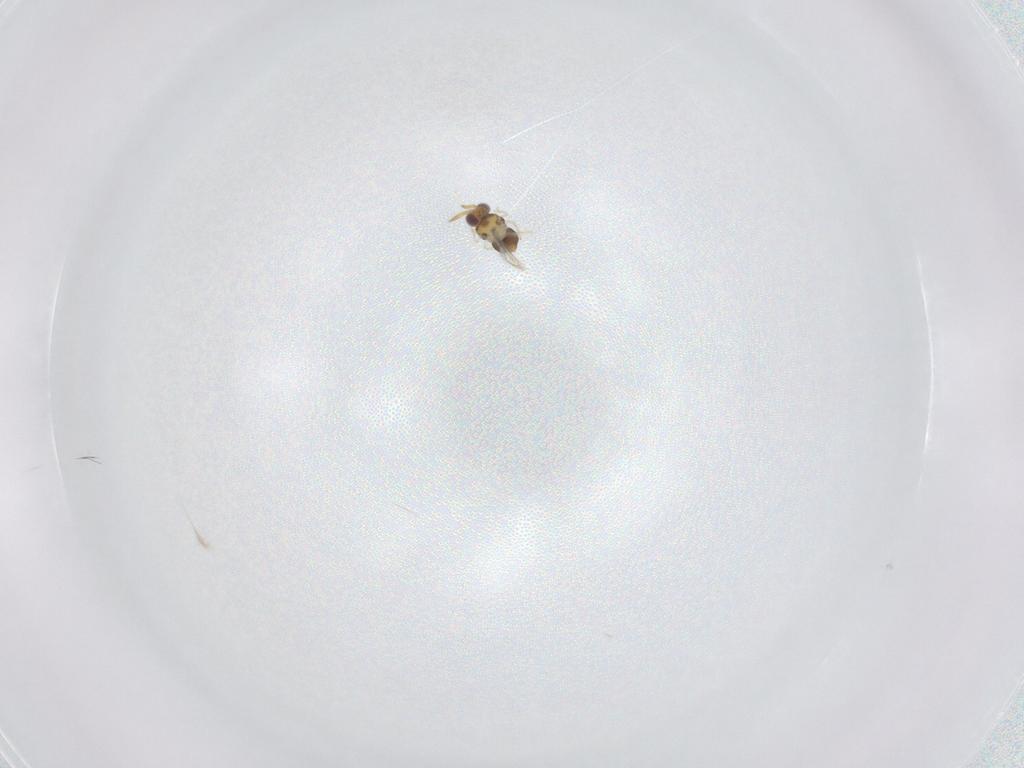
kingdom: Animalia
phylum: Arthropoda
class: Insecta
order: Hymenoptera
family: Aphelinidae
